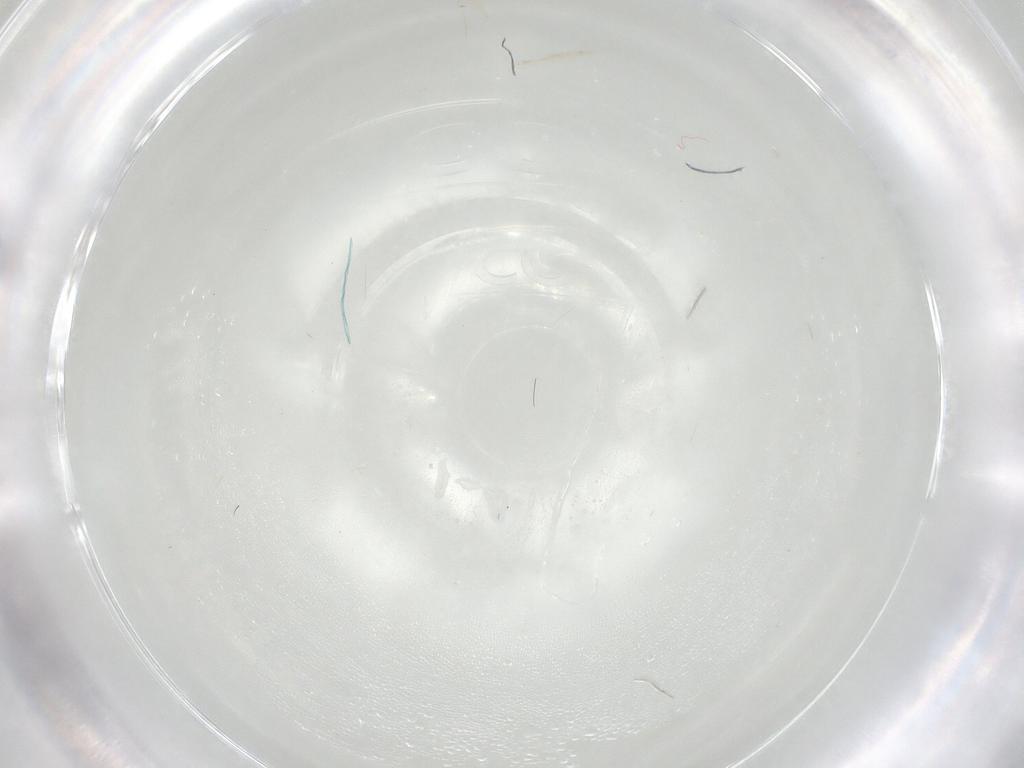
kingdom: Animalia
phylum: Arthropoda
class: Insecta
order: Diptera
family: Cecidomyiidae
